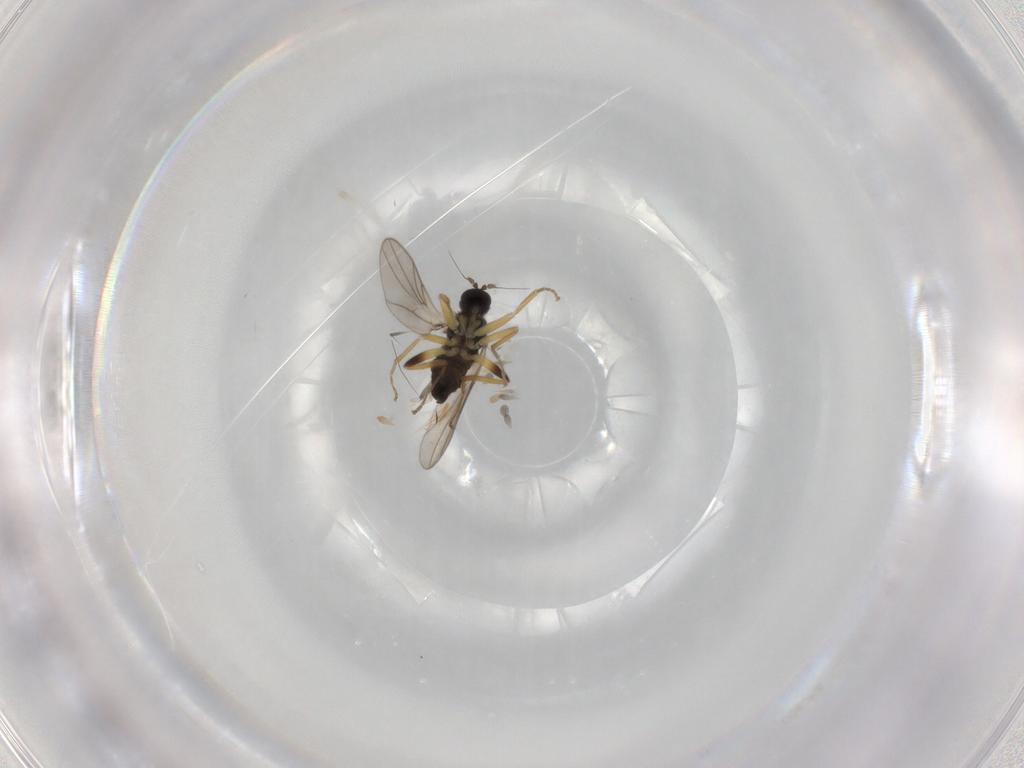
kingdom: Animalia
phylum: Arthropoda
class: Insecta
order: Diptera
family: Hybotidae
